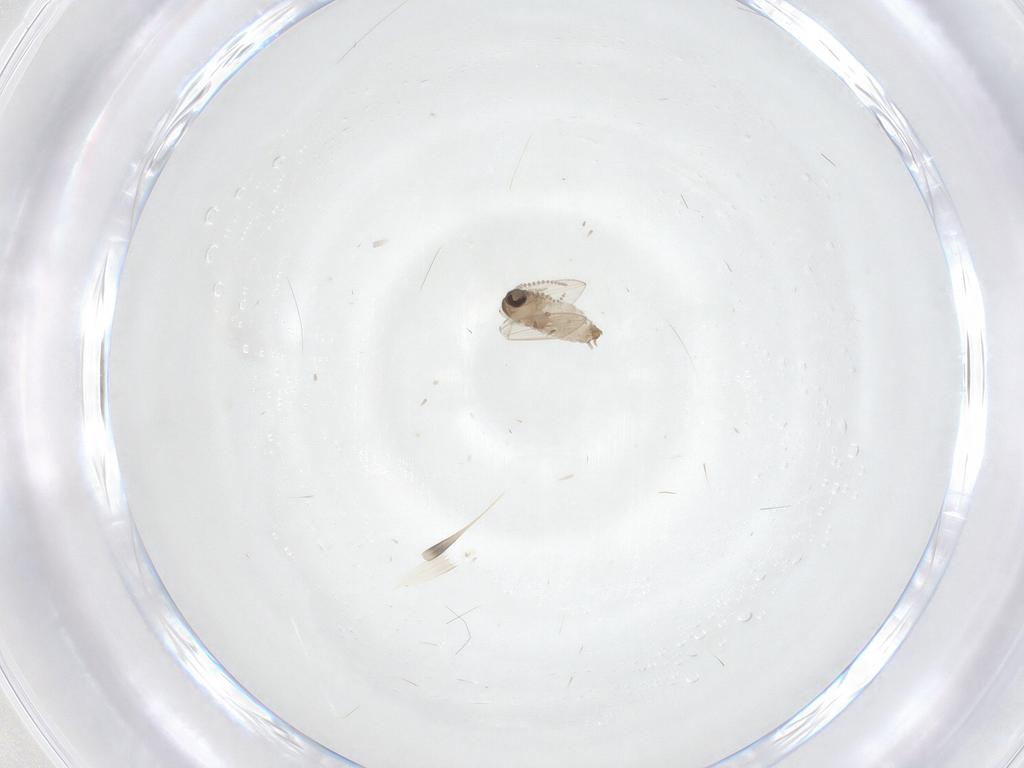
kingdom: Animalia
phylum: Arthropoda
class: Insecta
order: Diptera
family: Psychodidae
